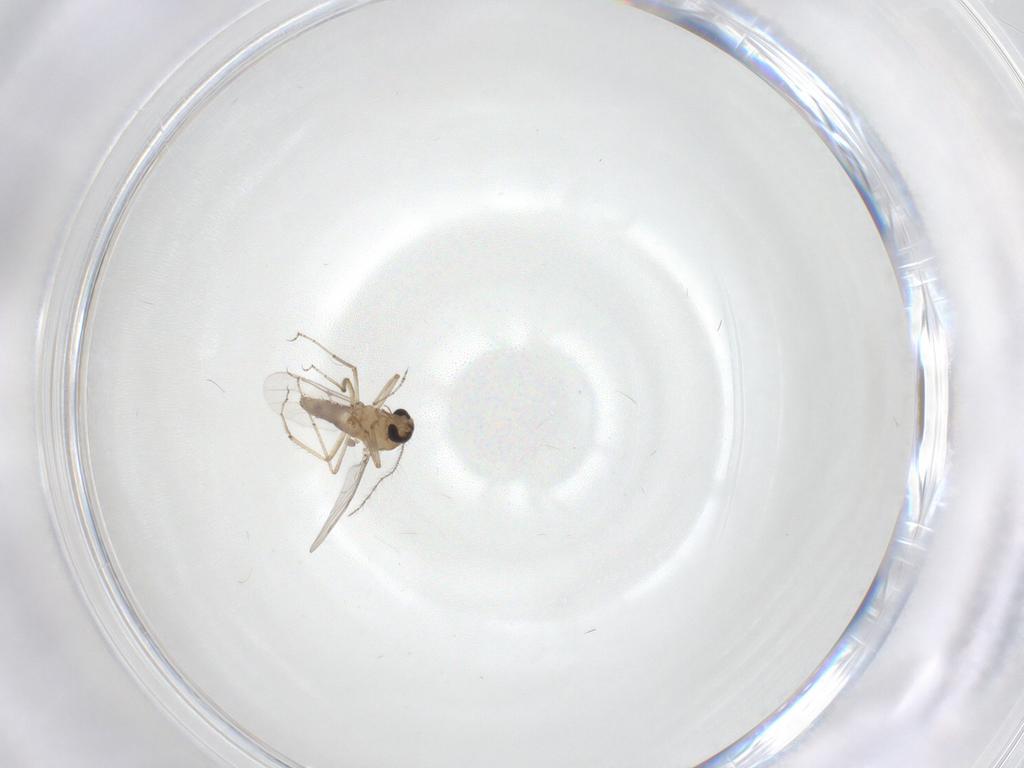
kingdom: Animalia
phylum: Arthropoda
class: Insecta
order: Diptera
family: Ceratopogonidae
